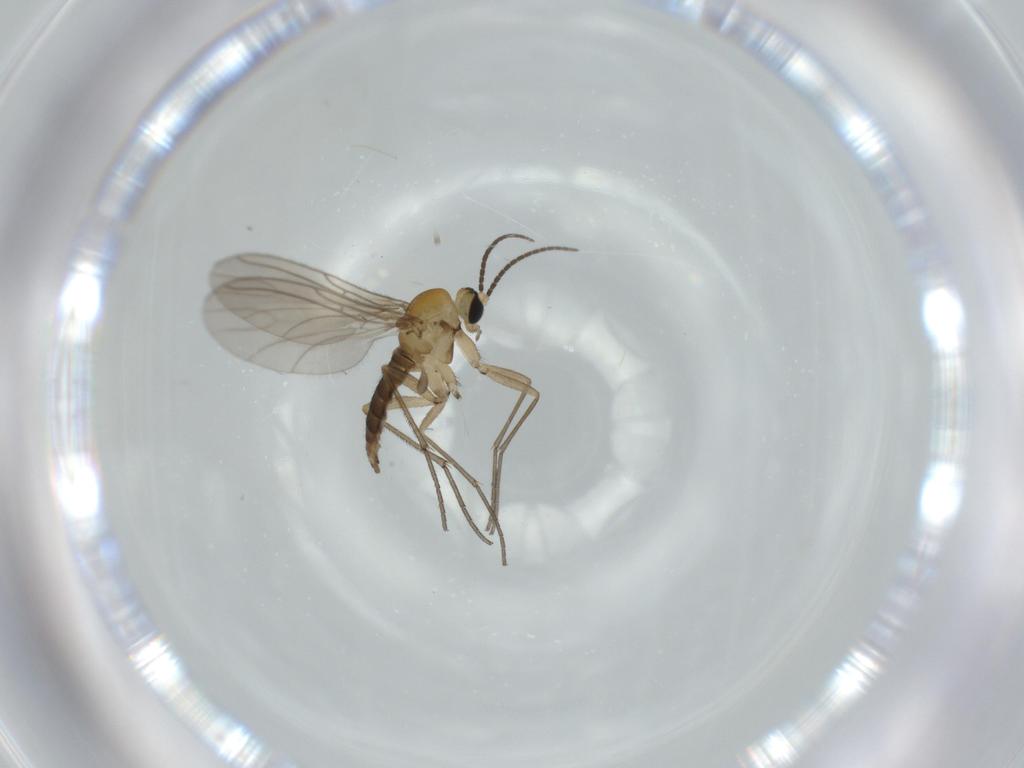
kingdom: Animalia
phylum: Arthropoda
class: Insecta
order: Diptera
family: Sciaridae
